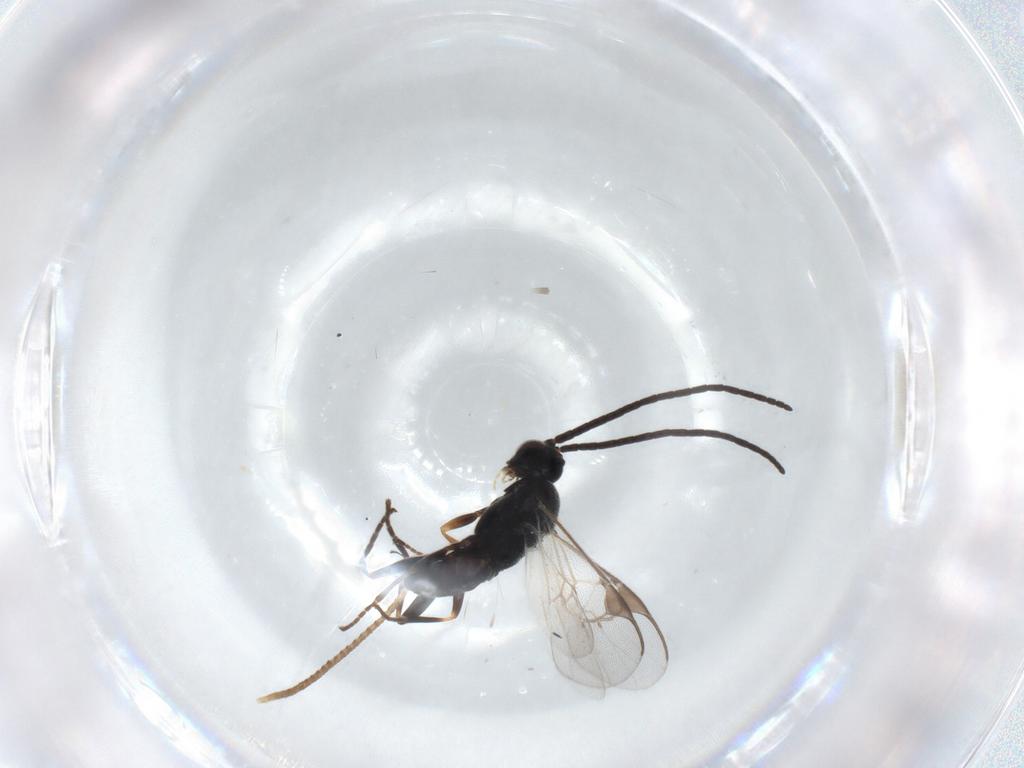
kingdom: Animalia
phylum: Arthropoda
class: Insecta
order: Hymenoptera
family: Braconidae
